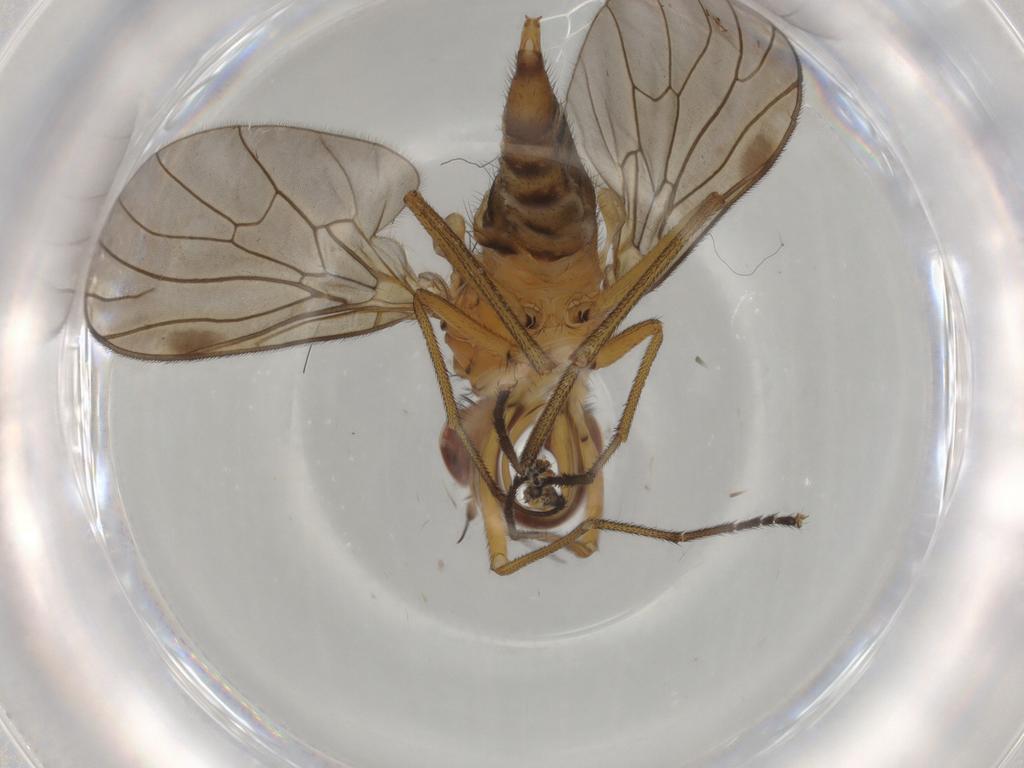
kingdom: Animalia
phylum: Arthropoda
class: Insecta
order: Diptera
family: Brachystomatidae
